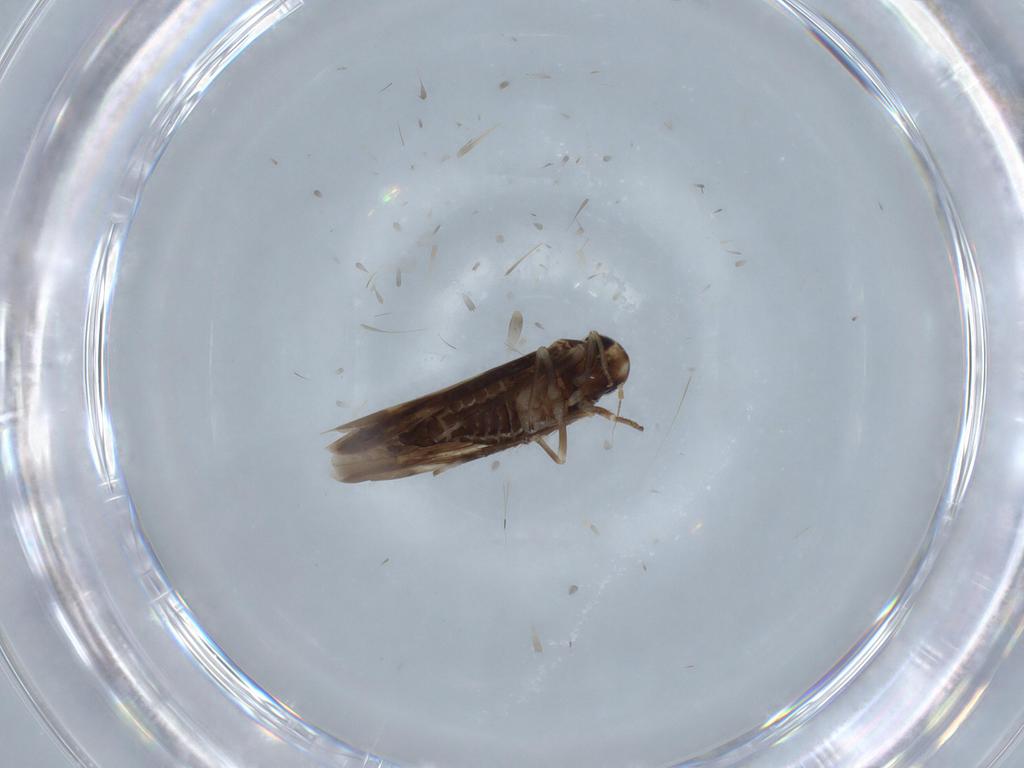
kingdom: Animalia
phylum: Arthropoda
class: Insecta
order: Hemiptera
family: Cicadellidae
